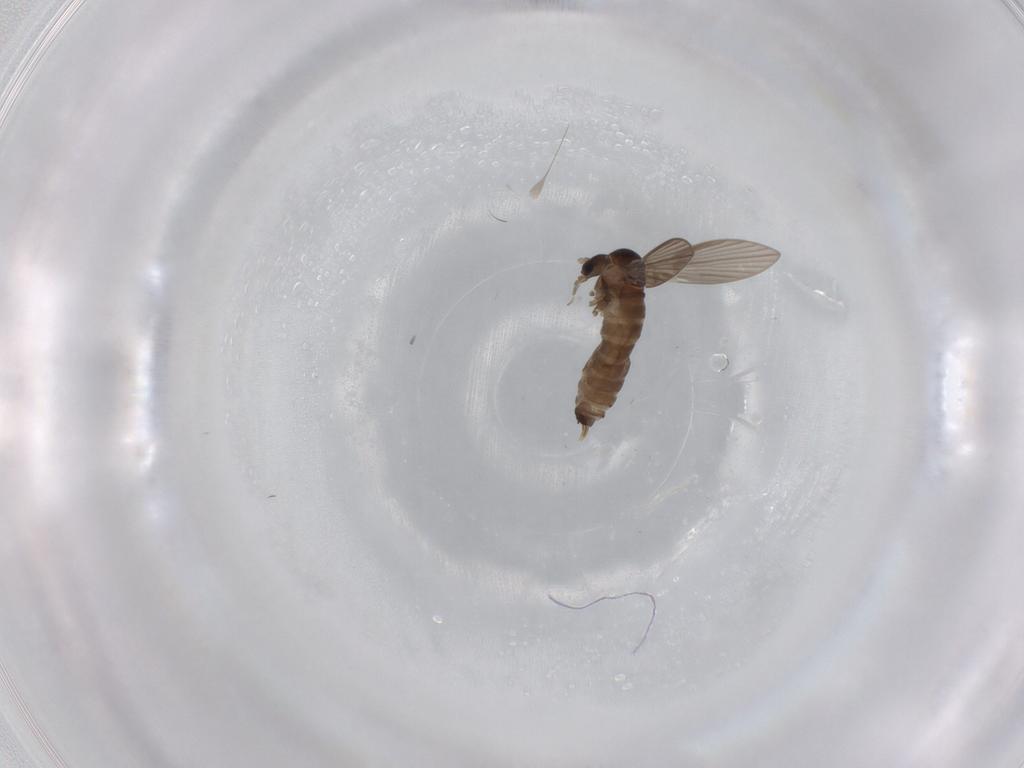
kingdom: Animalia
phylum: Arthropoda
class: Insecta
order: Diptera
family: Psychodidae
